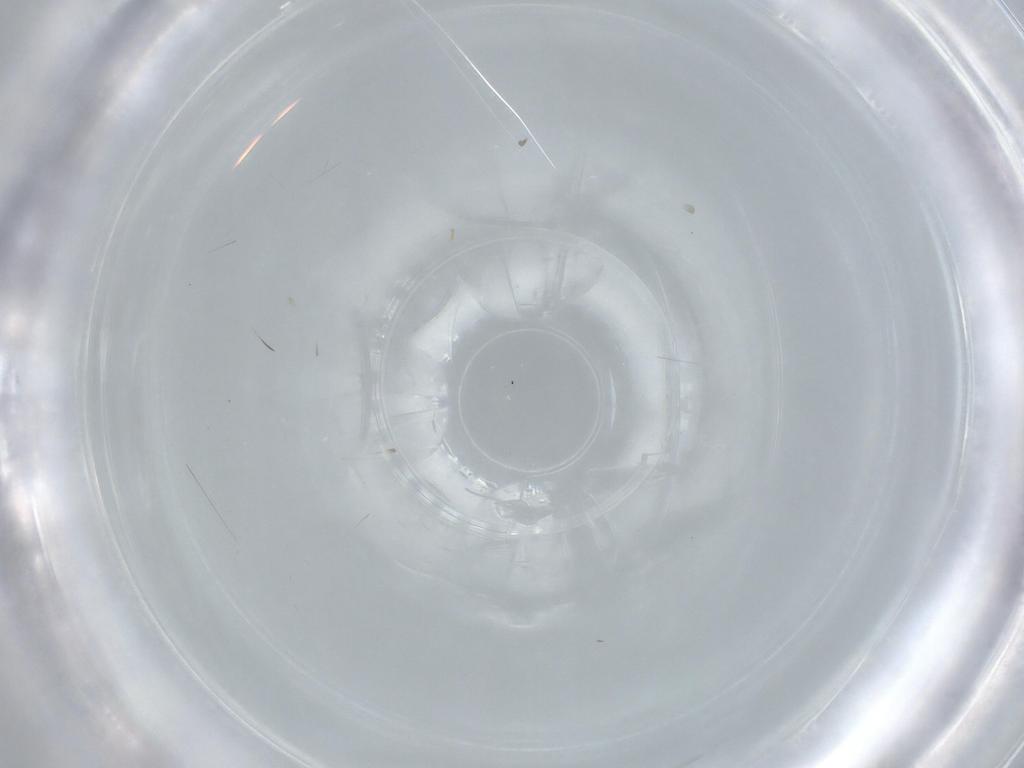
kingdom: Animalia
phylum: Arthropoda
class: Insecta
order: Diptera
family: Cecidomyiidae
